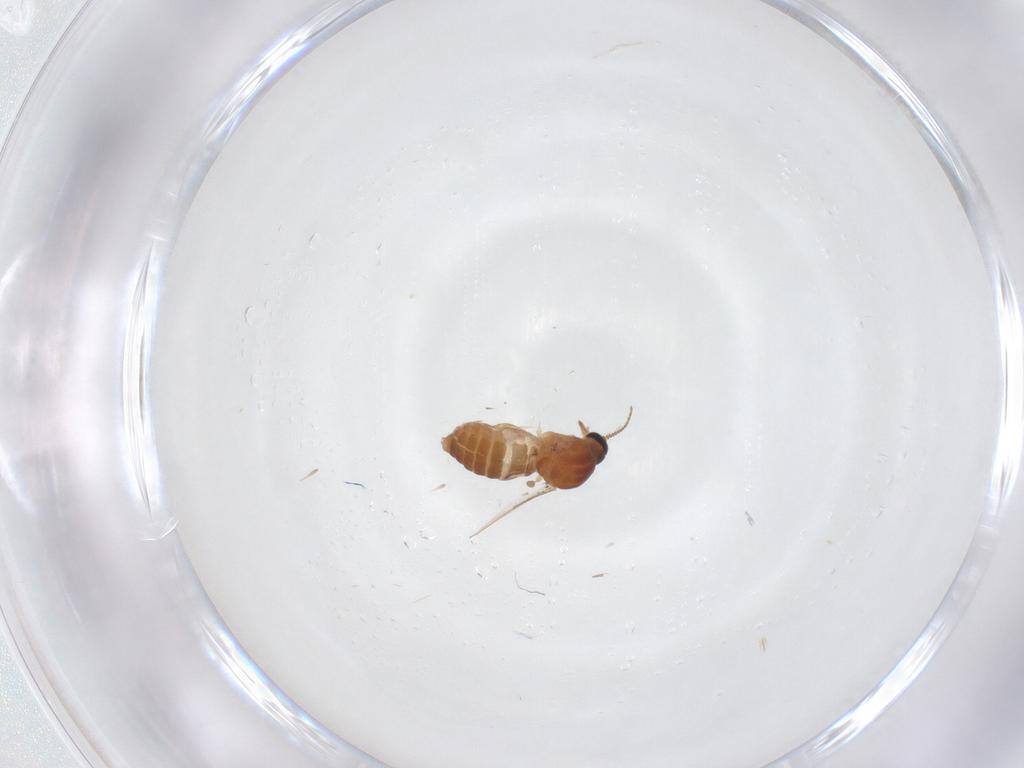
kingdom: Animalia
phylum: Arthropoda
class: Insecta
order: Diptera
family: Ceratopogonidae
